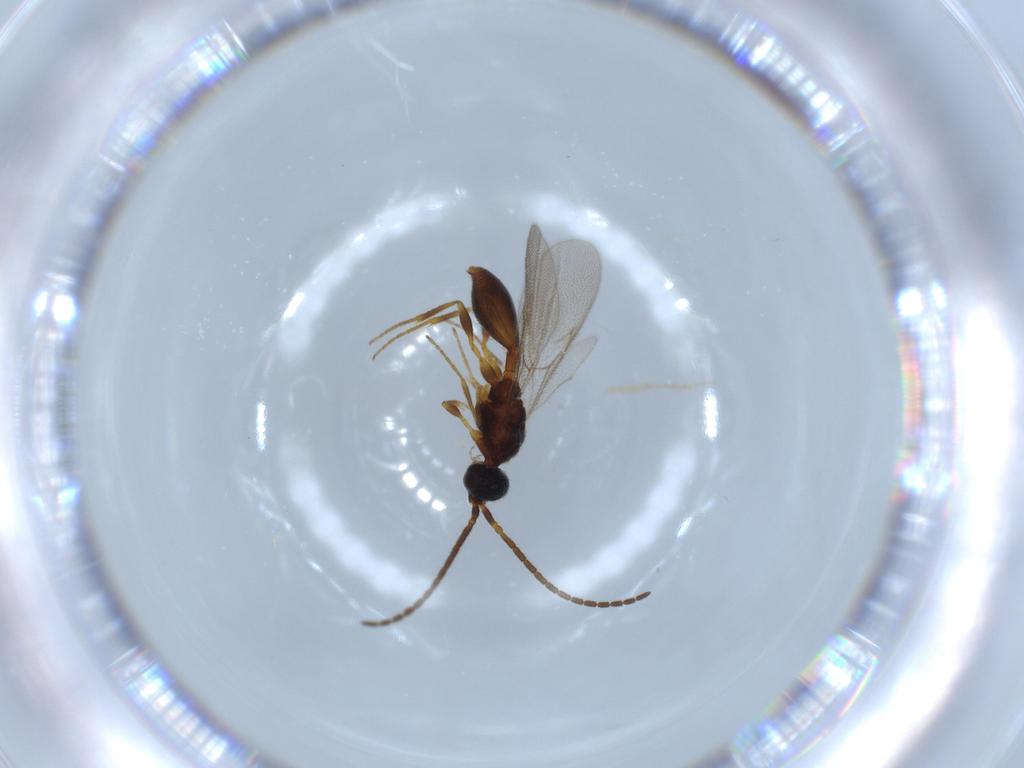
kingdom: Animalia
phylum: Arthropoda
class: Insecta
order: Hymenoptera
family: Diapriidae
